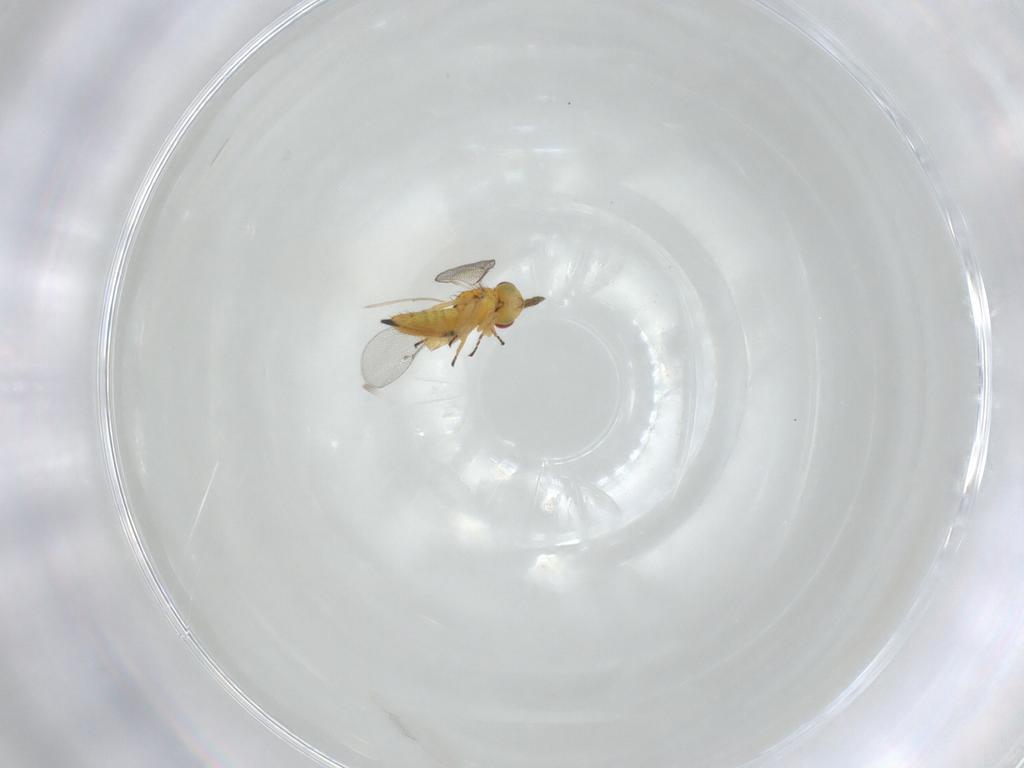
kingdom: Animalia
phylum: Arthropoda
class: Insecta
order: Hymenoptera
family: Eulophidae
